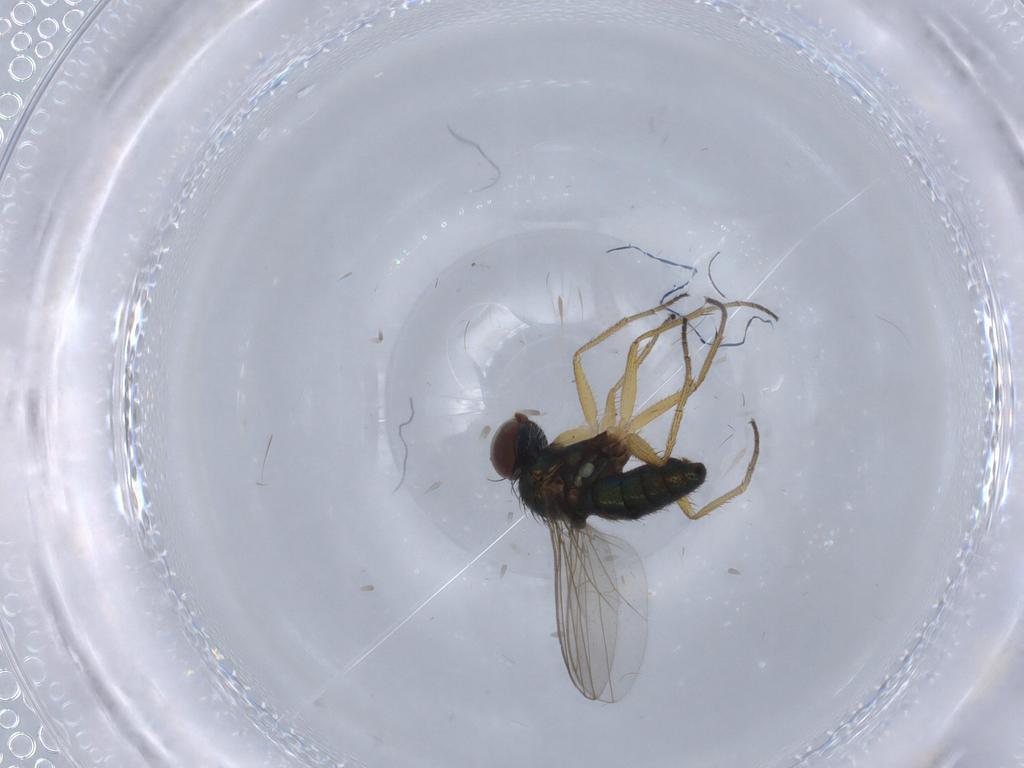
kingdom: Animalia
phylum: Arthropoda
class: Insecta
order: Diptera
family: Dolichopodidae
